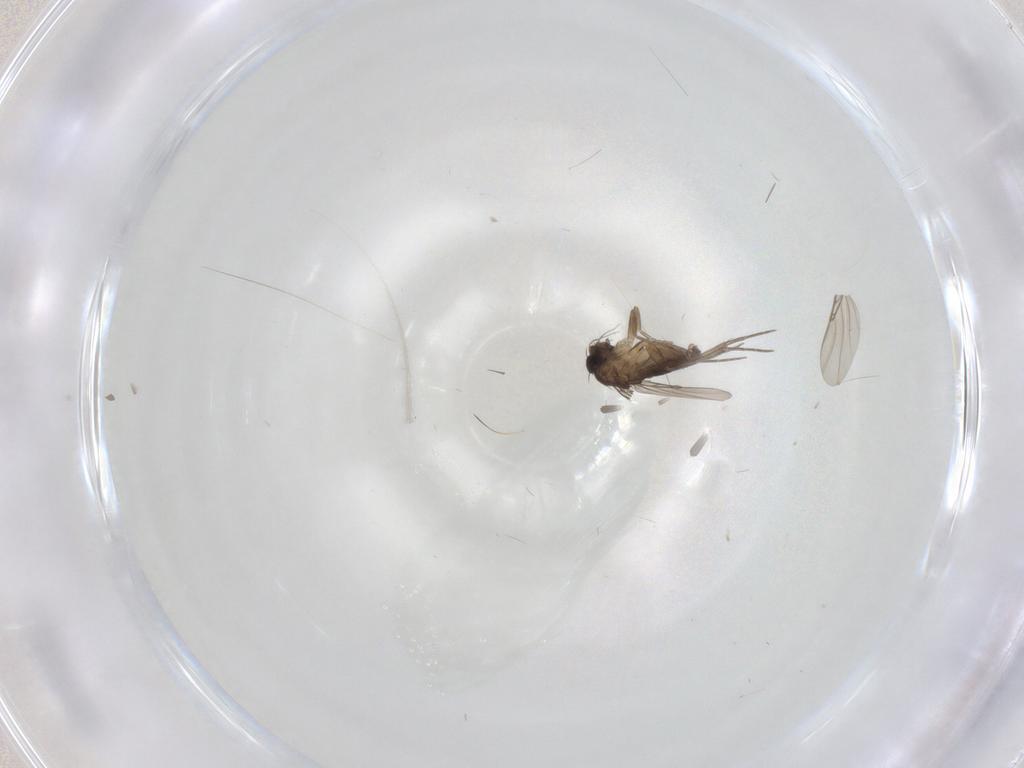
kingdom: Animalia
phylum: Arthropoda
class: Insecta
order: Diptera
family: Phoridae
